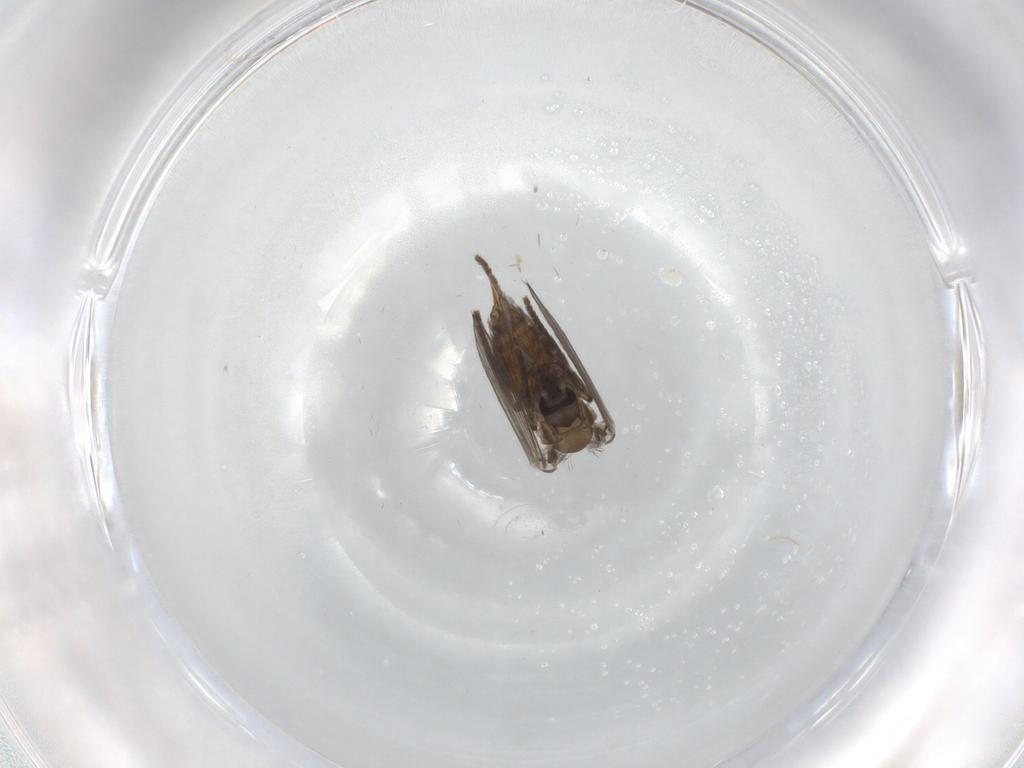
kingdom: Animalia
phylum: Arthropoda
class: Insecta
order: Diptera
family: Psychodidae
